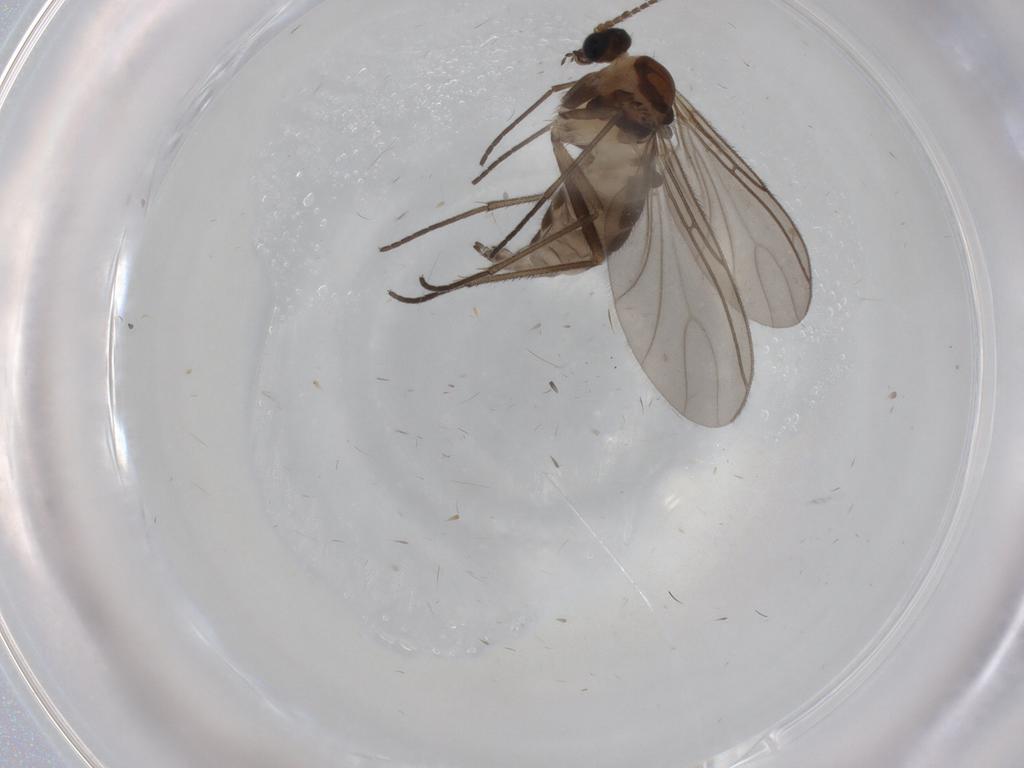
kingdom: Animalia
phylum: Arthropoda
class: Insecta
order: Diptera
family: Sciaridae
